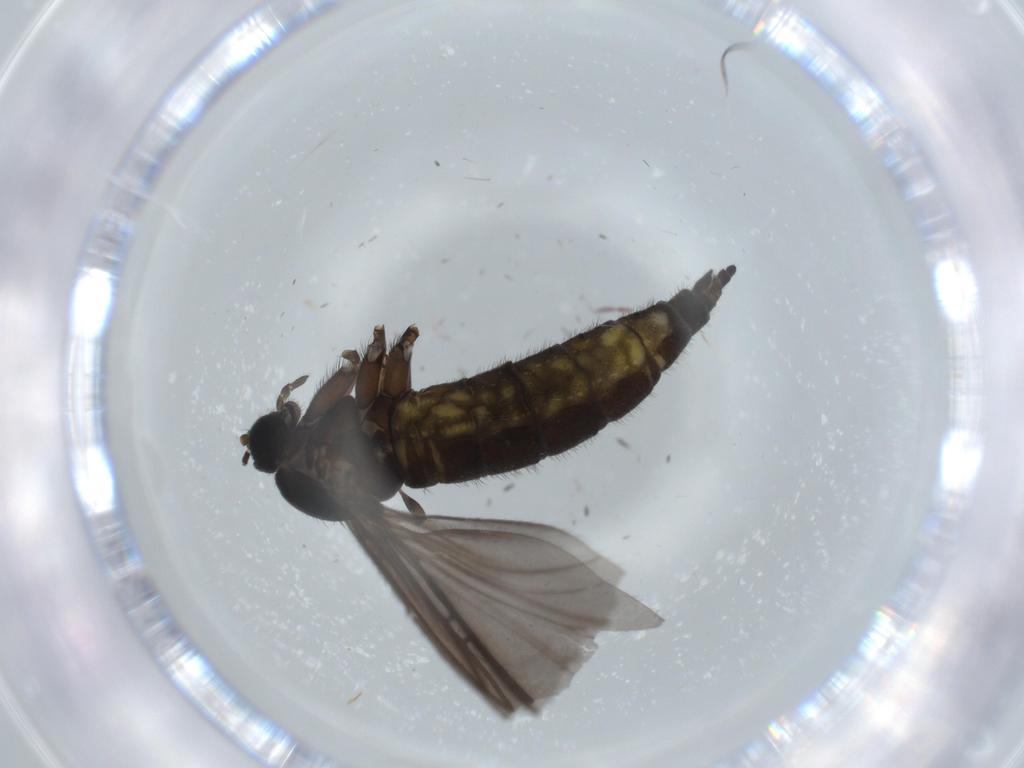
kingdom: Animalia
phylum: Arthropoda
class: Insecta
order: Diptera
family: Sciaridae
